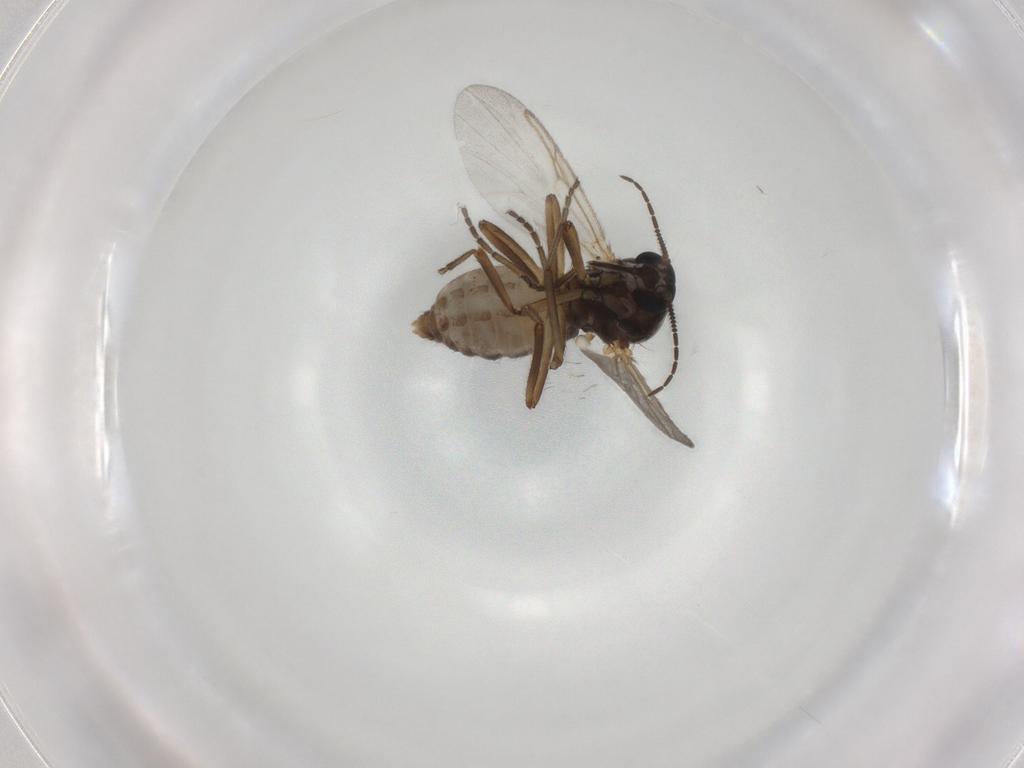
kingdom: Animalia
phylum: Arthropoda
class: Insecta
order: Diptera
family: Ceratopogonidae
